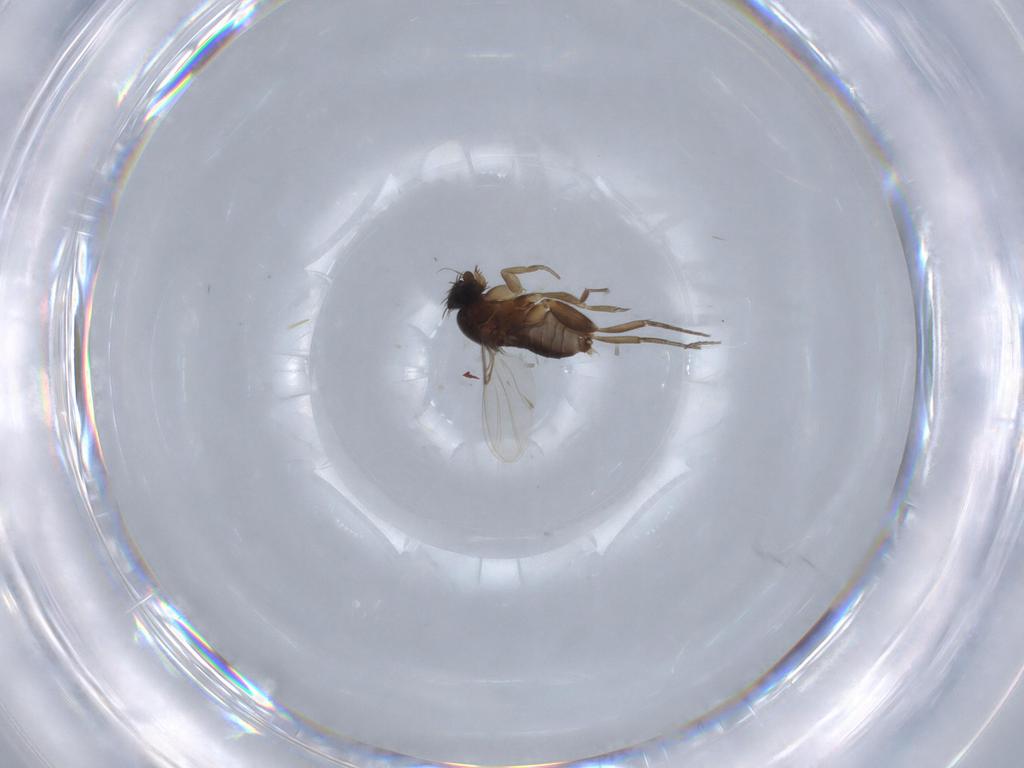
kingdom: Animalia
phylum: Arthropoda
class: Insecta
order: Diptera
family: Phoridae
